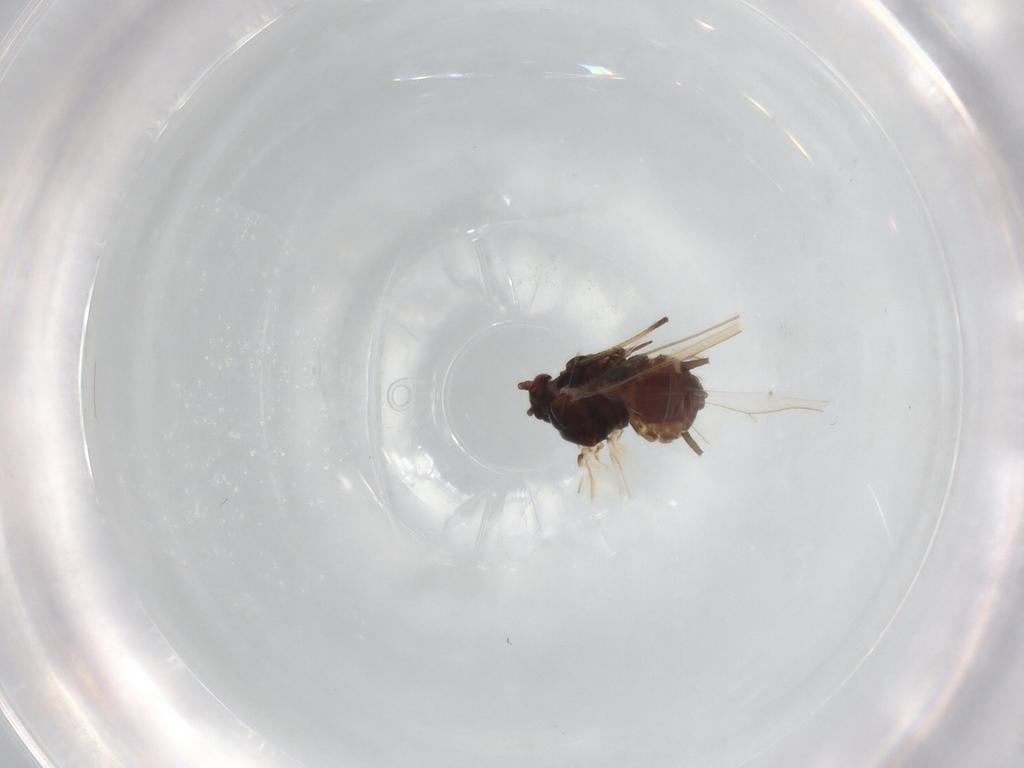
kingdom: Animalia
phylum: Arthropoda
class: Insecta
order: Hemiptera
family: Aphididae
